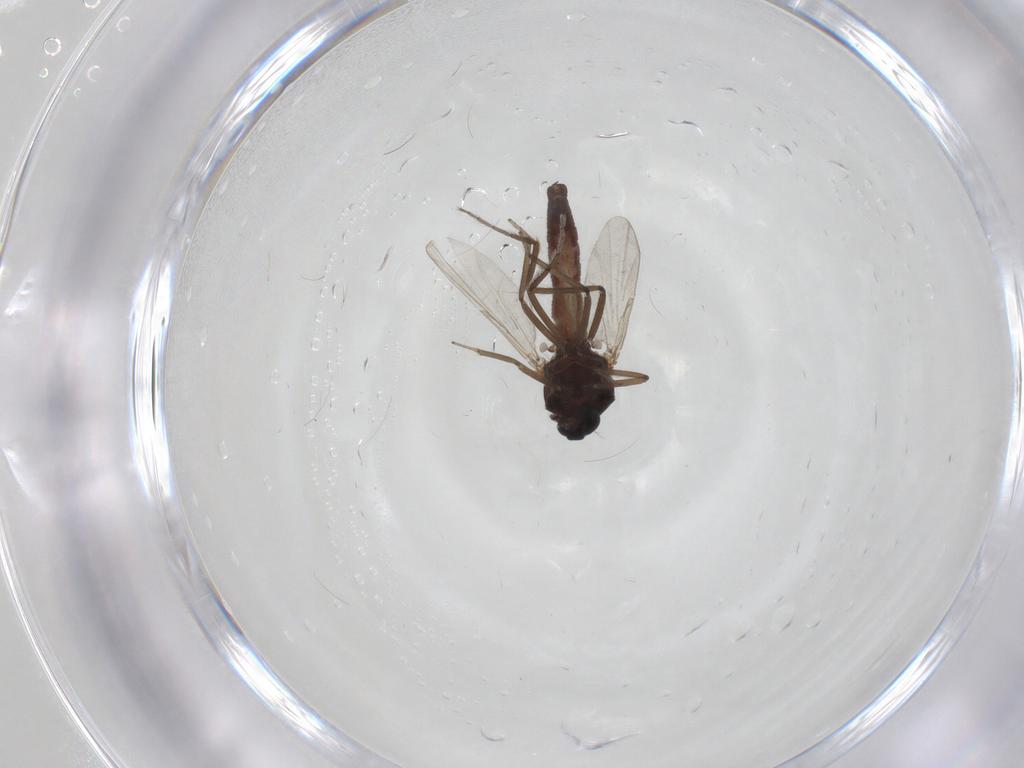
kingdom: Animalia
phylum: Arthropoda
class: Insecta
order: Diptera
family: Ceratopogonidae
